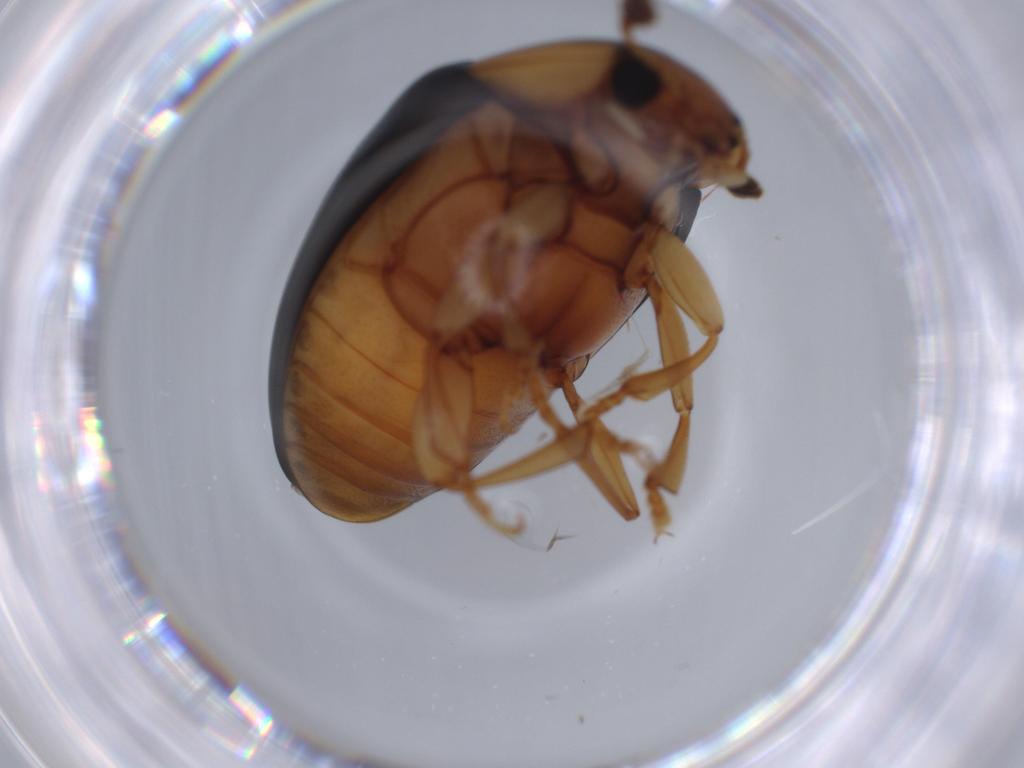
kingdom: Animalia
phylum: Arthropoda
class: Insecta
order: Coleoptera
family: Erotylidae
